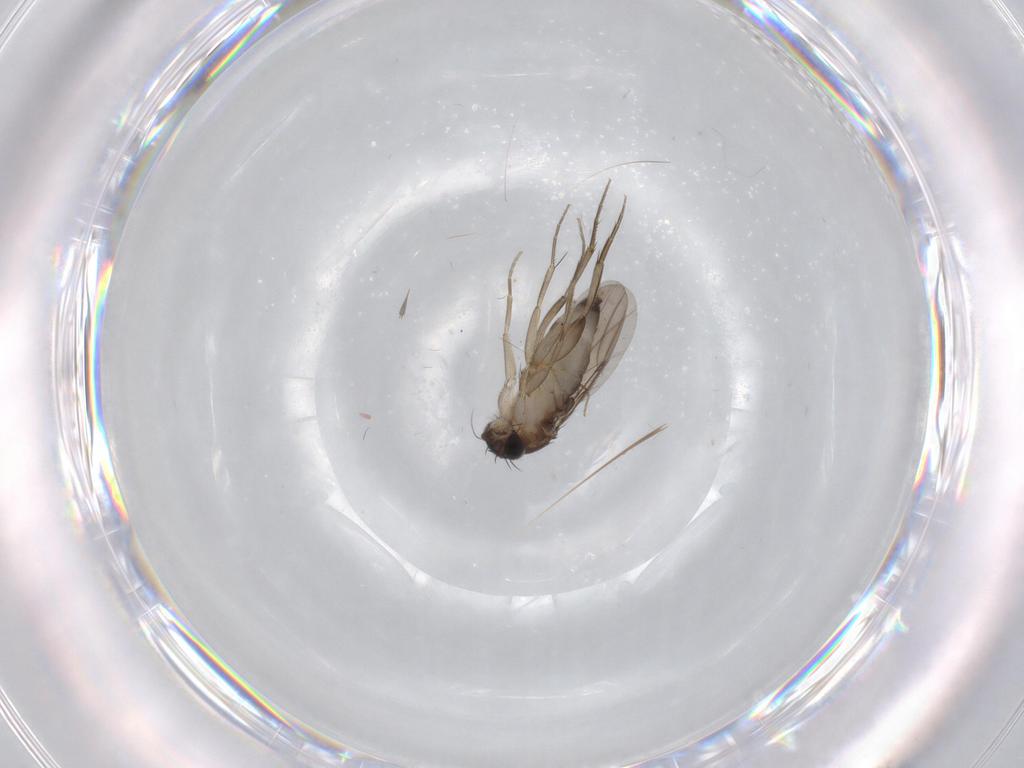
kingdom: Animalia
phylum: Arthropoda
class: Insecta
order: Diptera
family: Phoridae
